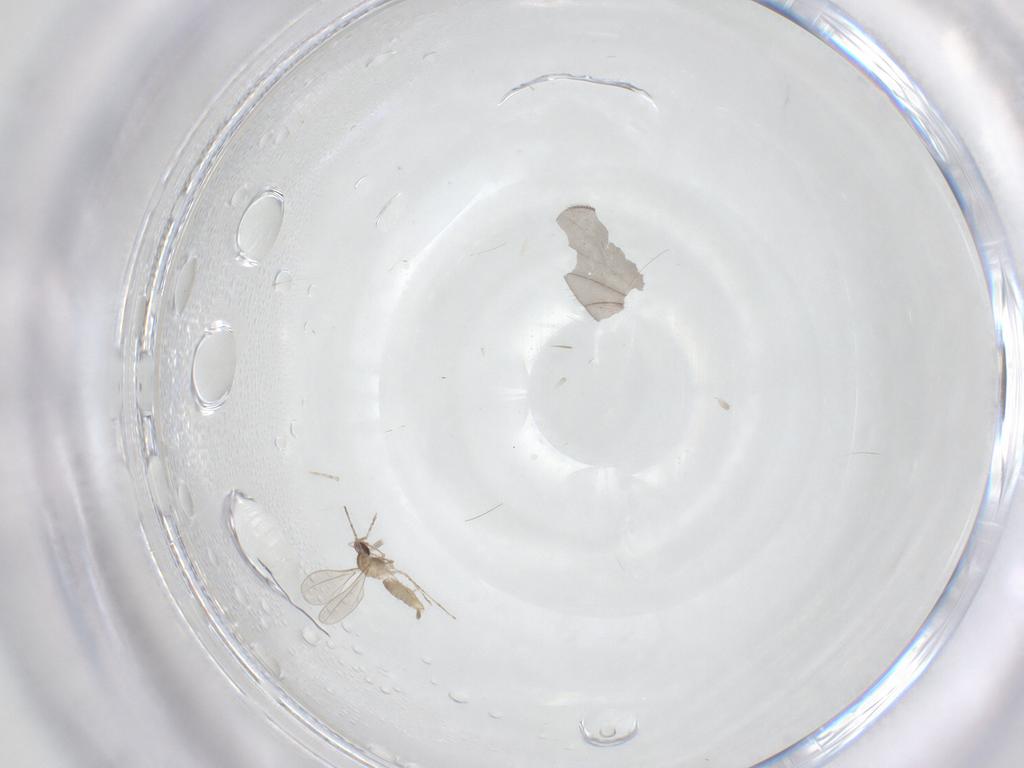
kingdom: Animalia
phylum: Arthropoda
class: Insecta
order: Diptera
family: Cecidomyiidae
